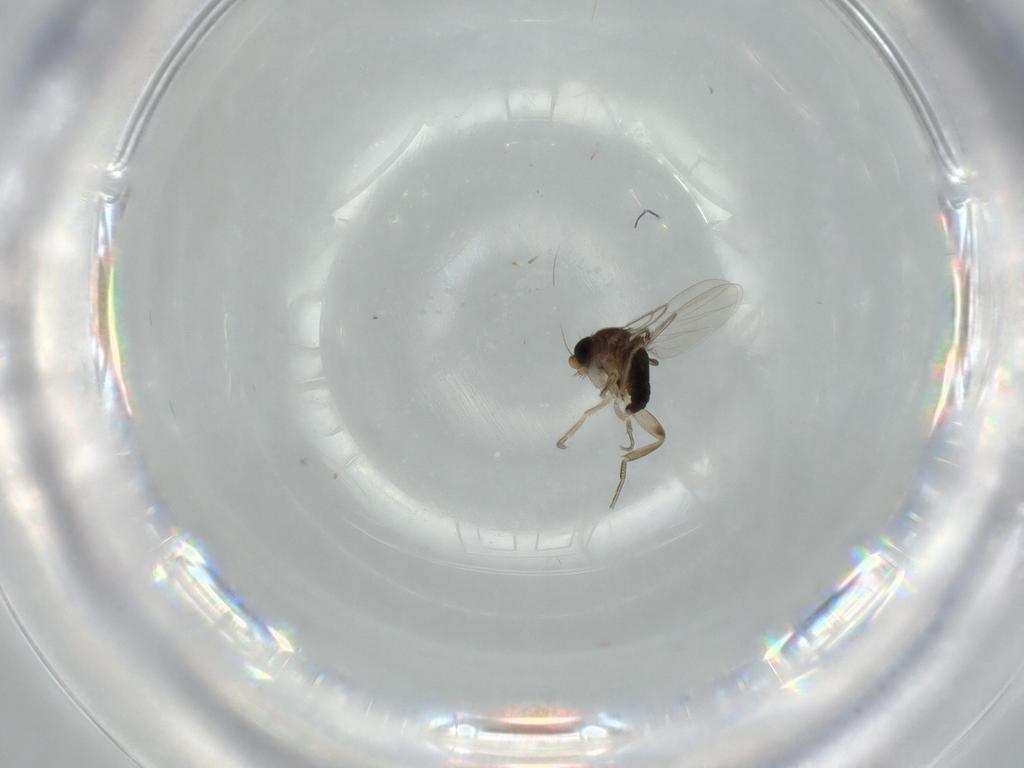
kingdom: Animalia
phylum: Arthropoda
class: Insecta
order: Diptera
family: Phoridae
